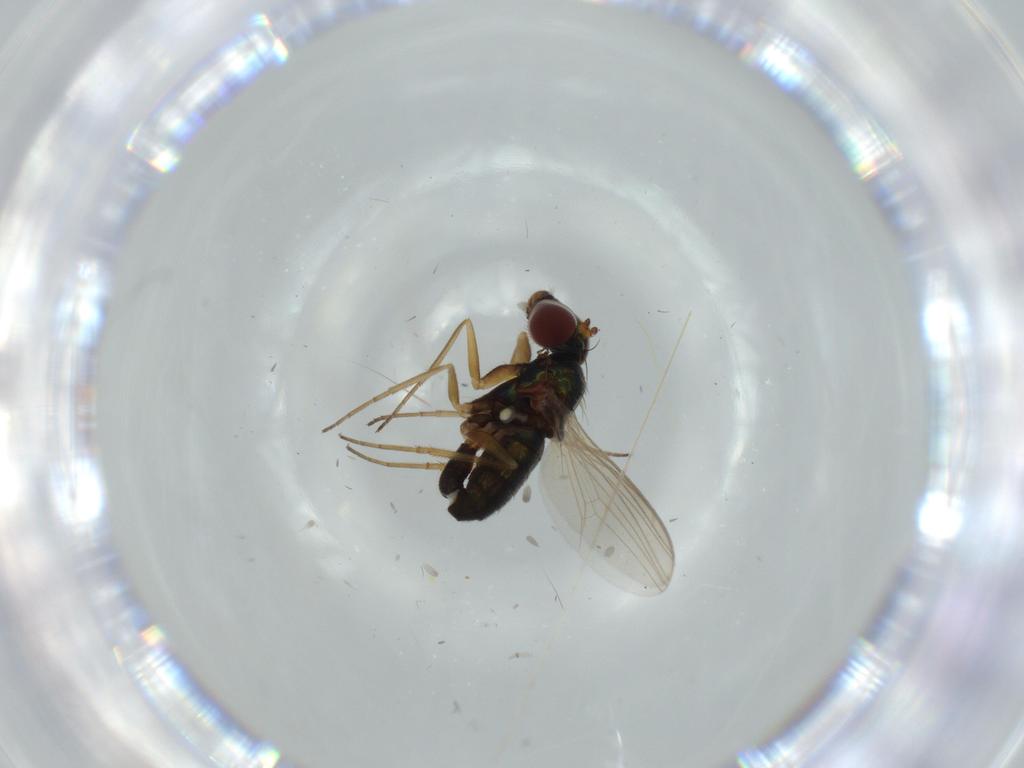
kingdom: Animalia
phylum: Arthropoda
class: Insecta
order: Diptera
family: Dolichopodidae
